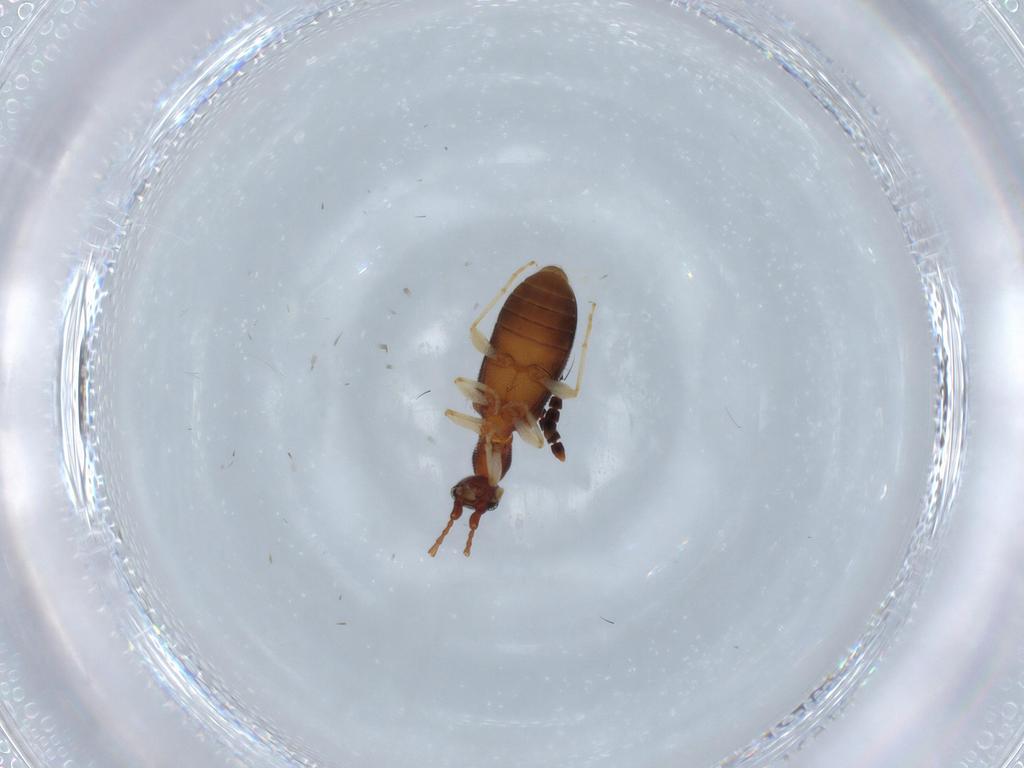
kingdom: Animalia
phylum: Arthropoda
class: Insecta
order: Coleoptera
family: Anthicidae
